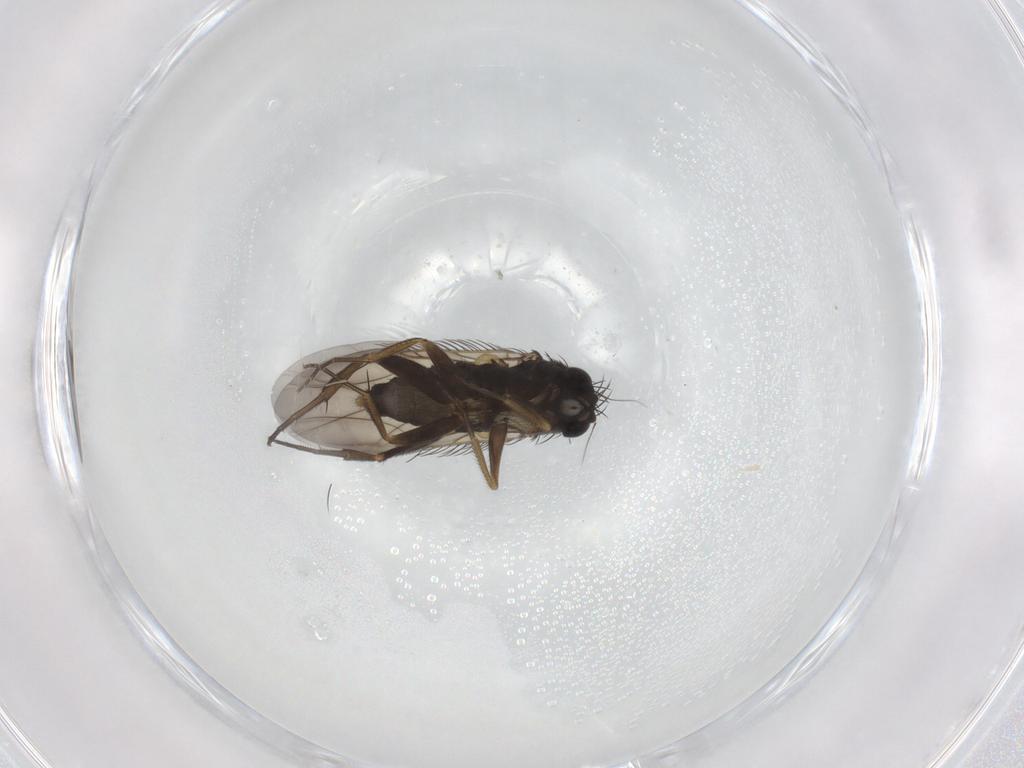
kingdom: Animalia
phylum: Arthropoda
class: Insecta
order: Diptera
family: Phoridae
